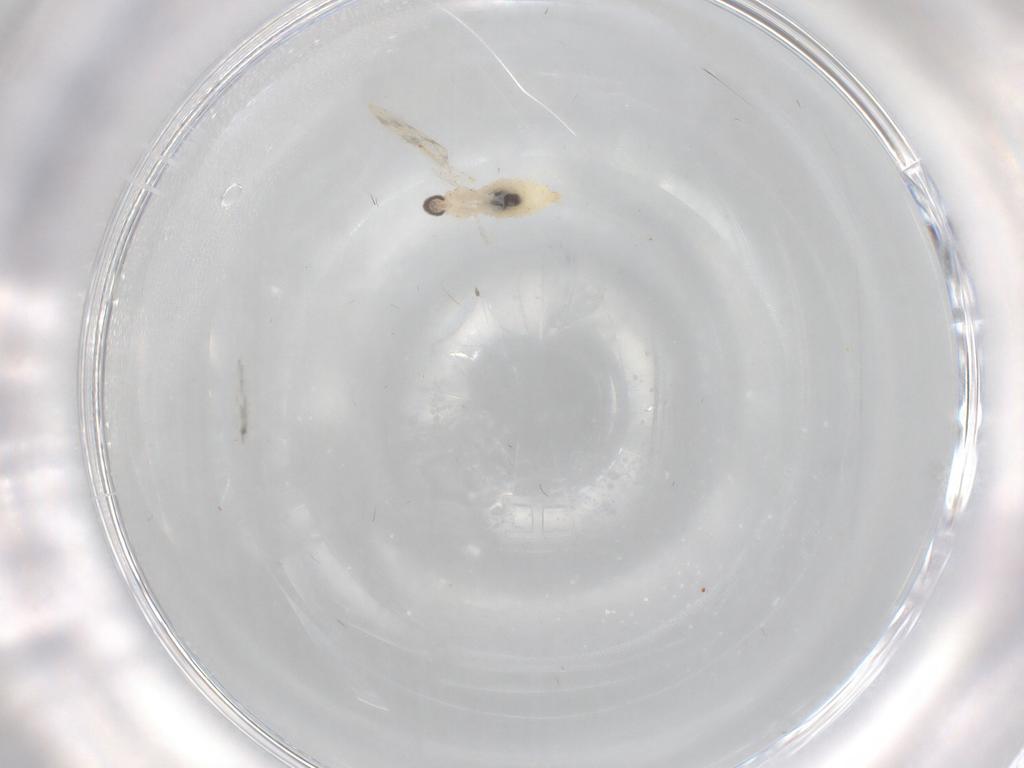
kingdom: Animalia
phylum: Arthropoda
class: Insecta
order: Diptera
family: Cecidomyiidae
